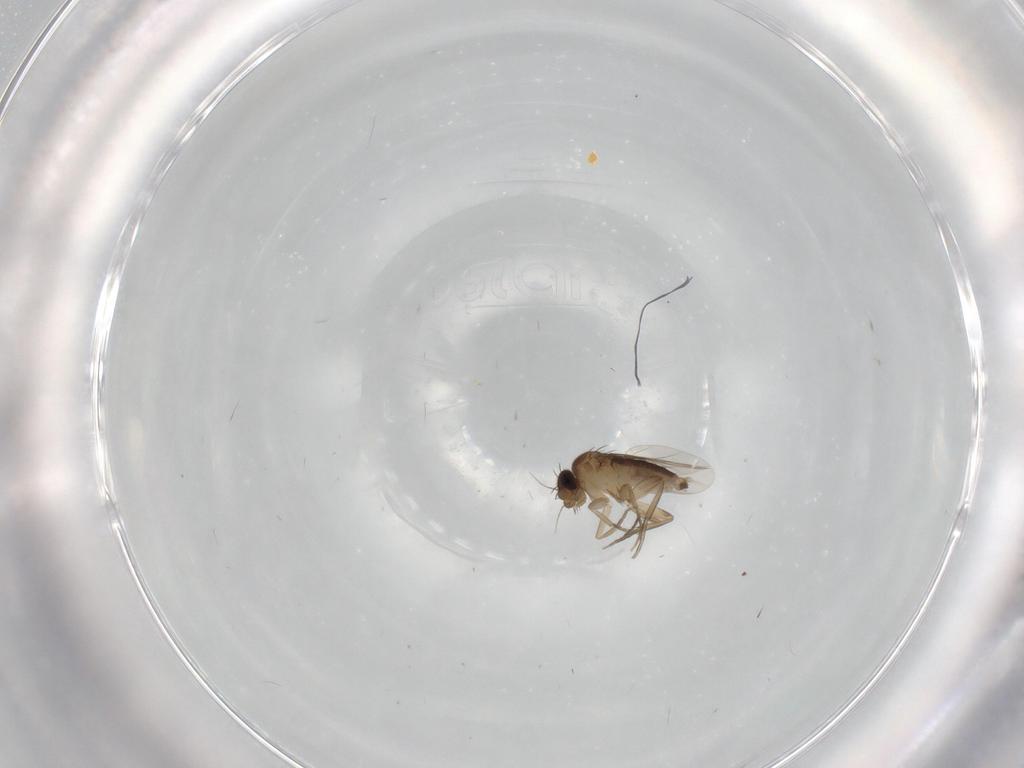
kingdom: Animalia
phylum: Arthropoda
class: Insecta
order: Diptera
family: Phoridae
